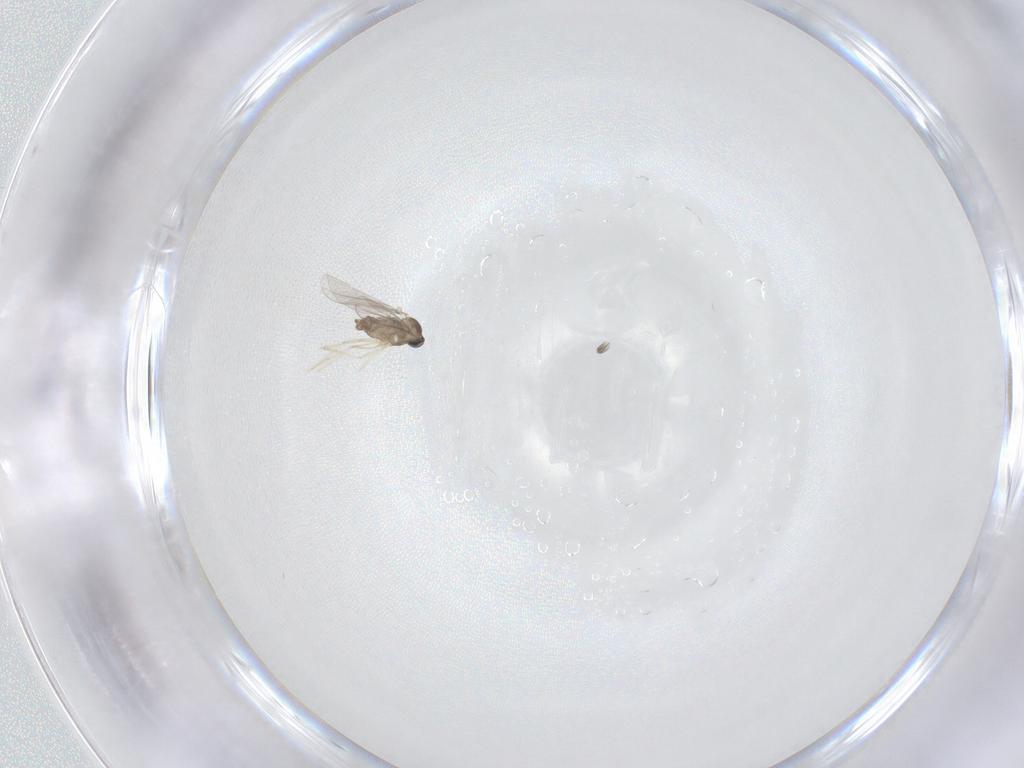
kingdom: Animalia
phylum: Arthropoda
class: Insecta
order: Diptera
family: Cecidomyiidae
